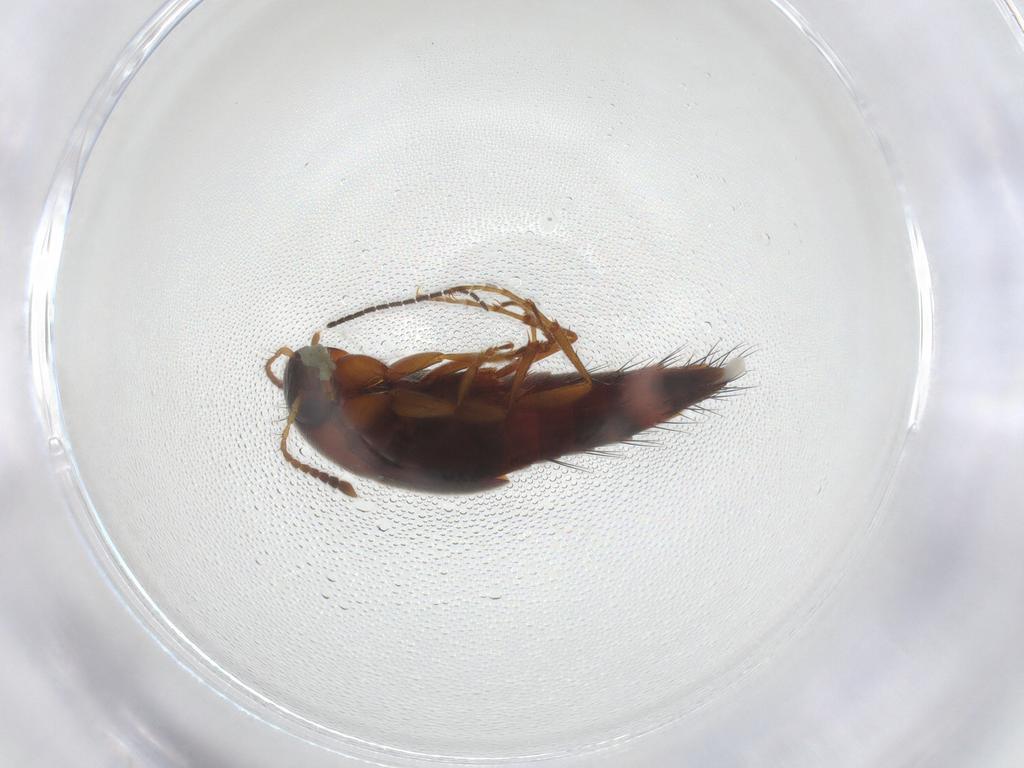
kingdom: Animalia
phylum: Arthropoda
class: Insecta
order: Coleoptera
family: Staphylinidae
